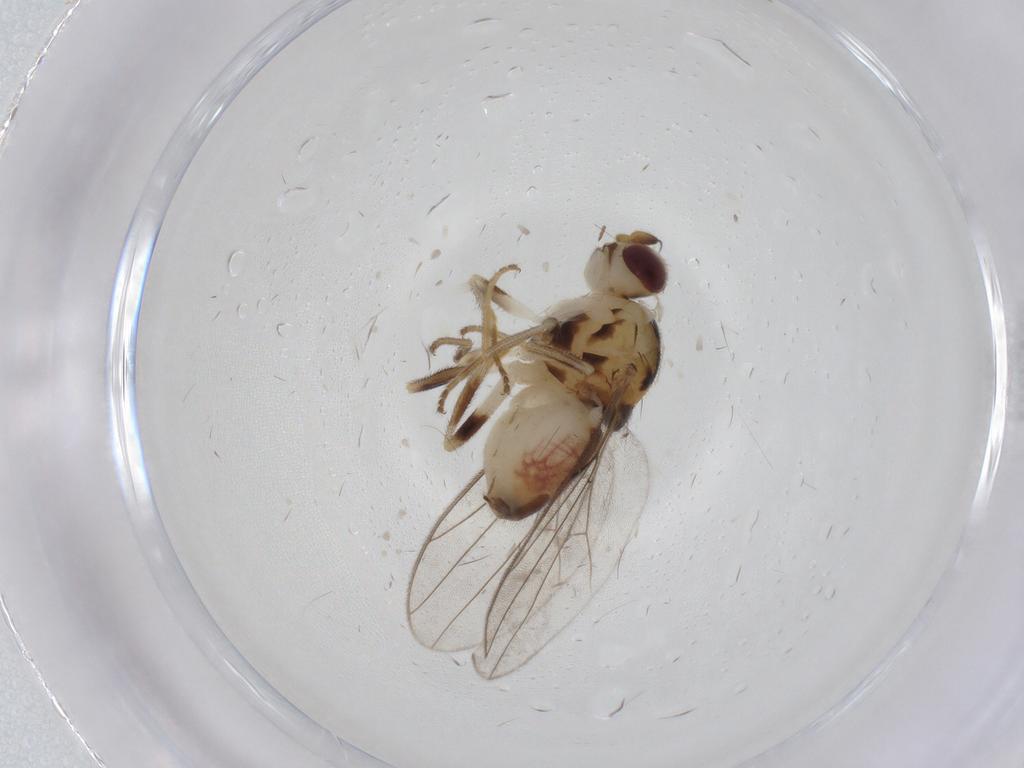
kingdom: Animalia
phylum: Arthropoda
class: Insecta
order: Diptera
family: Chloropidae
